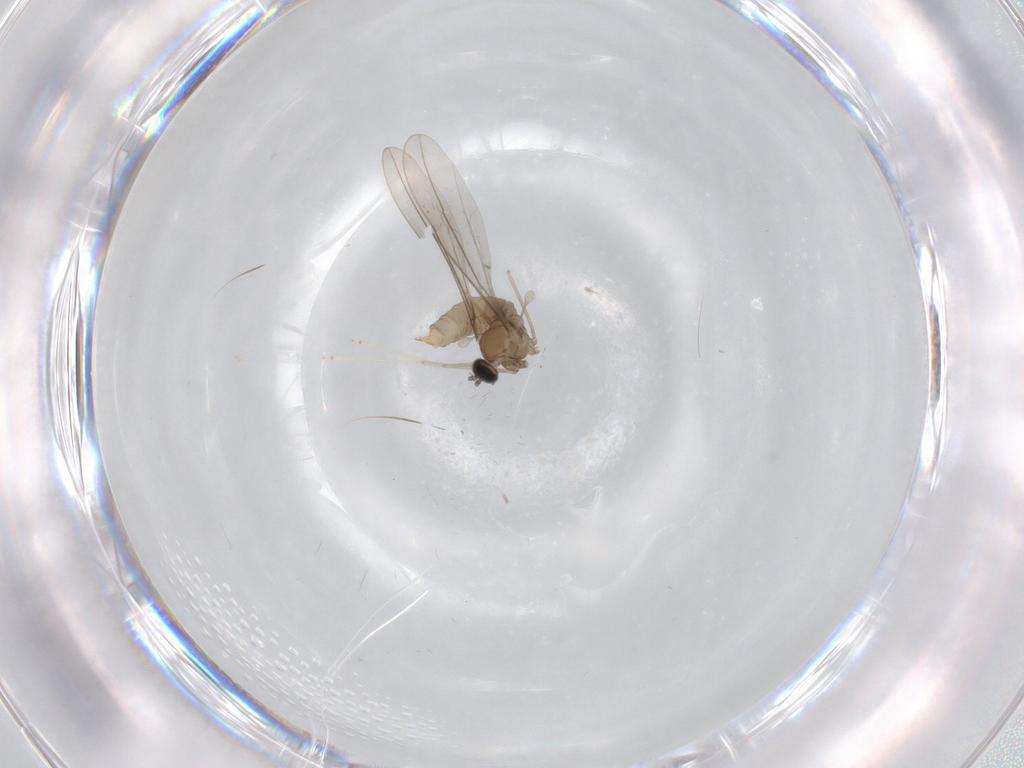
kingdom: Animalia
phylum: Arthropoda
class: Insecta
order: Diptera
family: Cecidomyiidae
